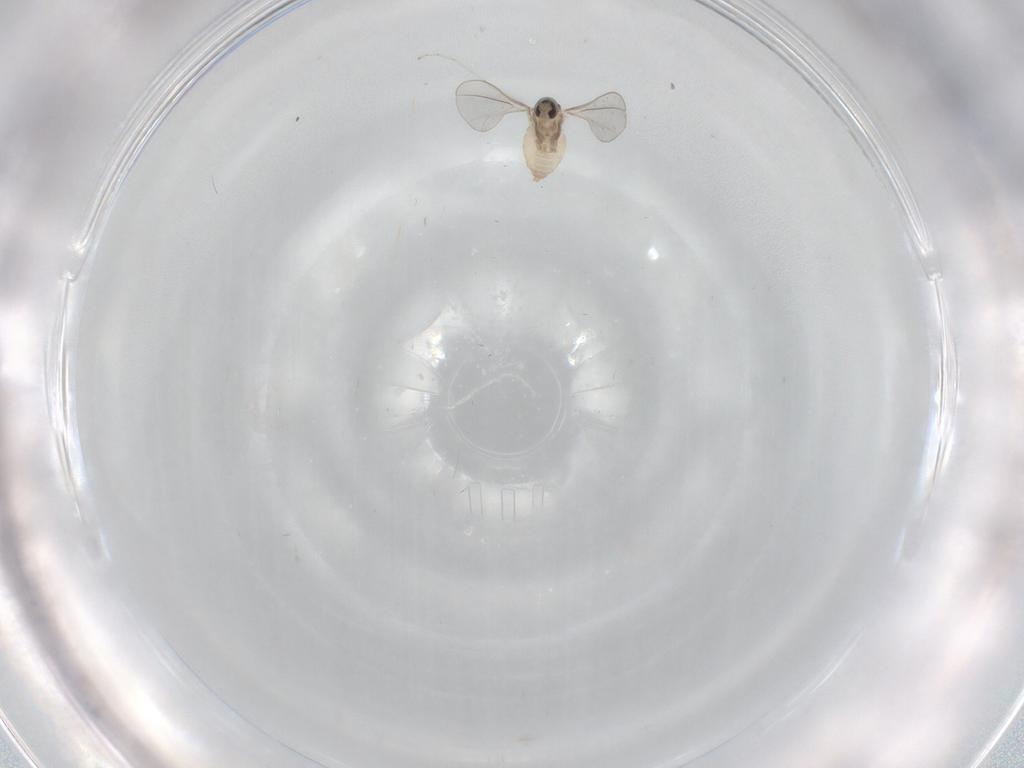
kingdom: Animalia
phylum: Arthropoda
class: Insecta
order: Diptera
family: Cecidomyiidae
